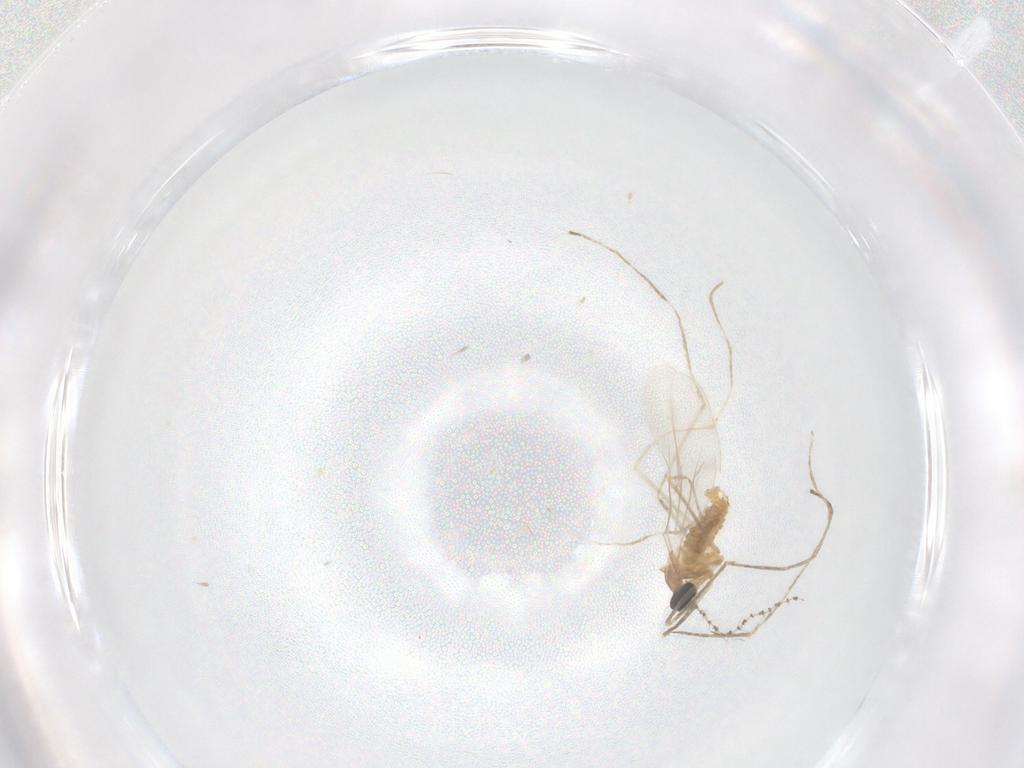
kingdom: Animalia
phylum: Arthropoda
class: Insecta
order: Diptera
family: Cecidomyiidae
